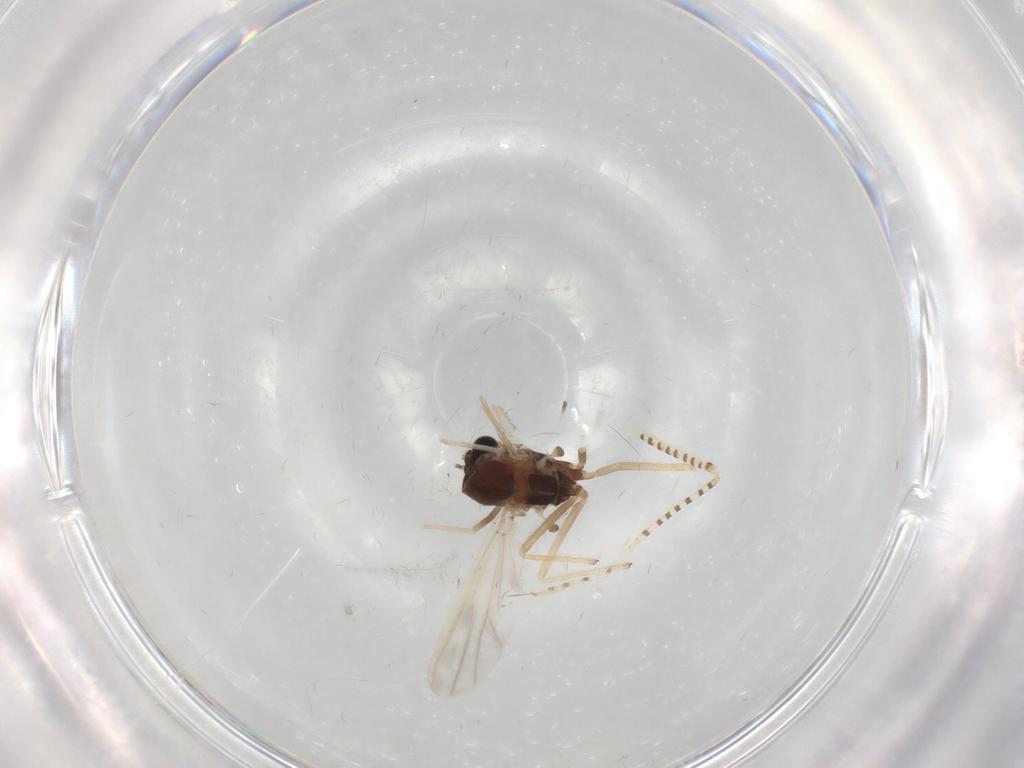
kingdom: Animalia
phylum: Arthropoda
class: Insecta
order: Diptera
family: Chironomidae
